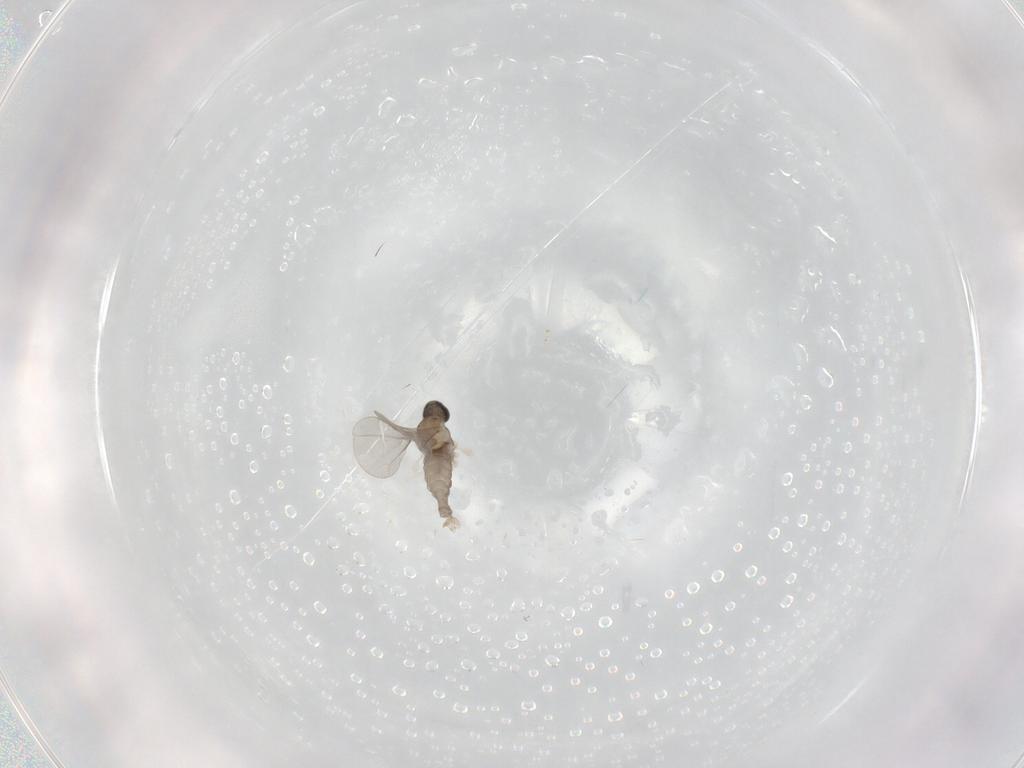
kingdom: Animalia
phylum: Arthropoda
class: Insecta
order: Diptera
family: Cecidomyiidae
